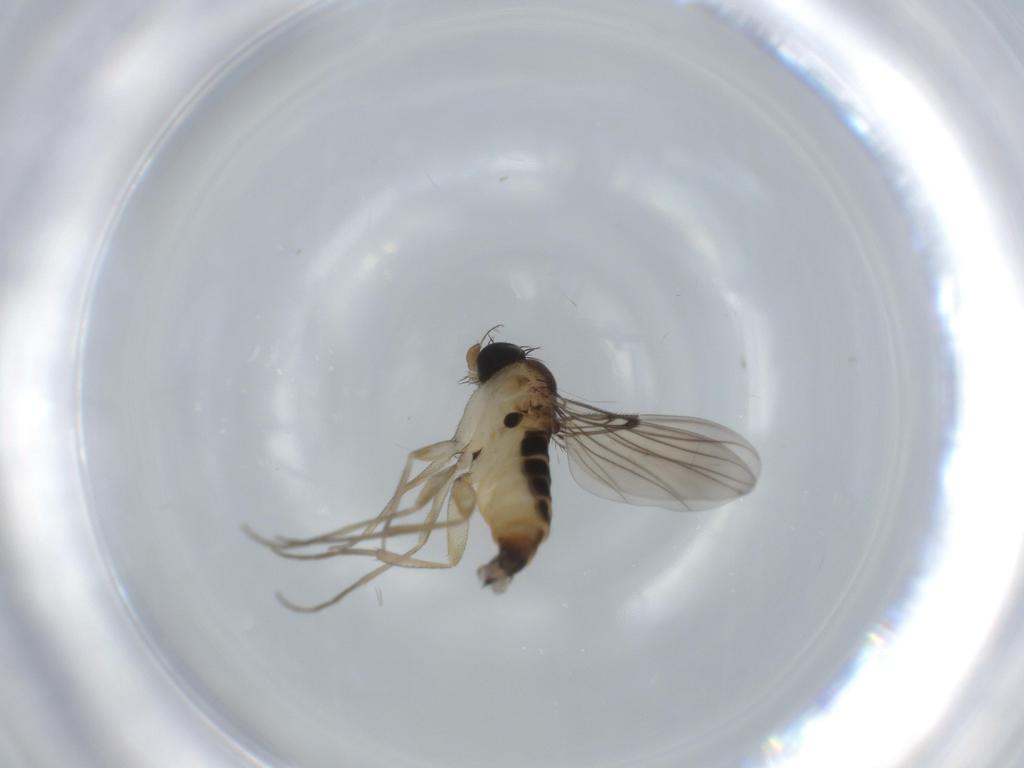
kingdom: Animalia
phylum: Arthropoda
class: Insecta
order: Diptera
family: Phoridae
